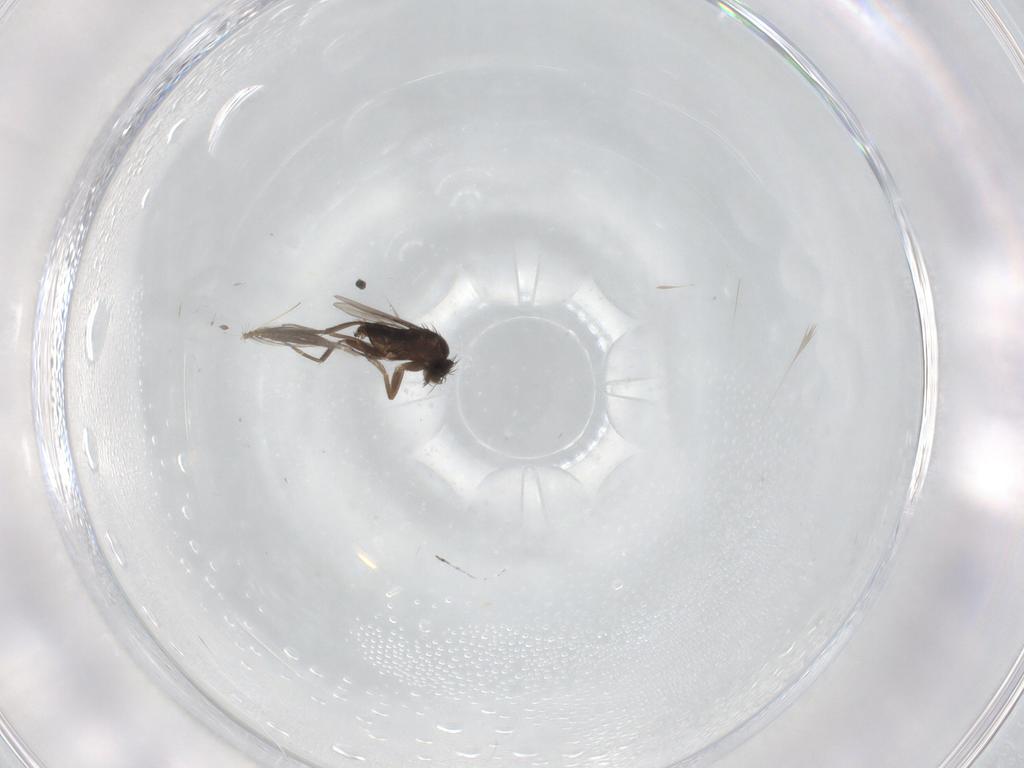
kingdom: Animalia
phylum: Arthropoda
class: Insecta
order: Diptera
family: Ceratopogonidae
